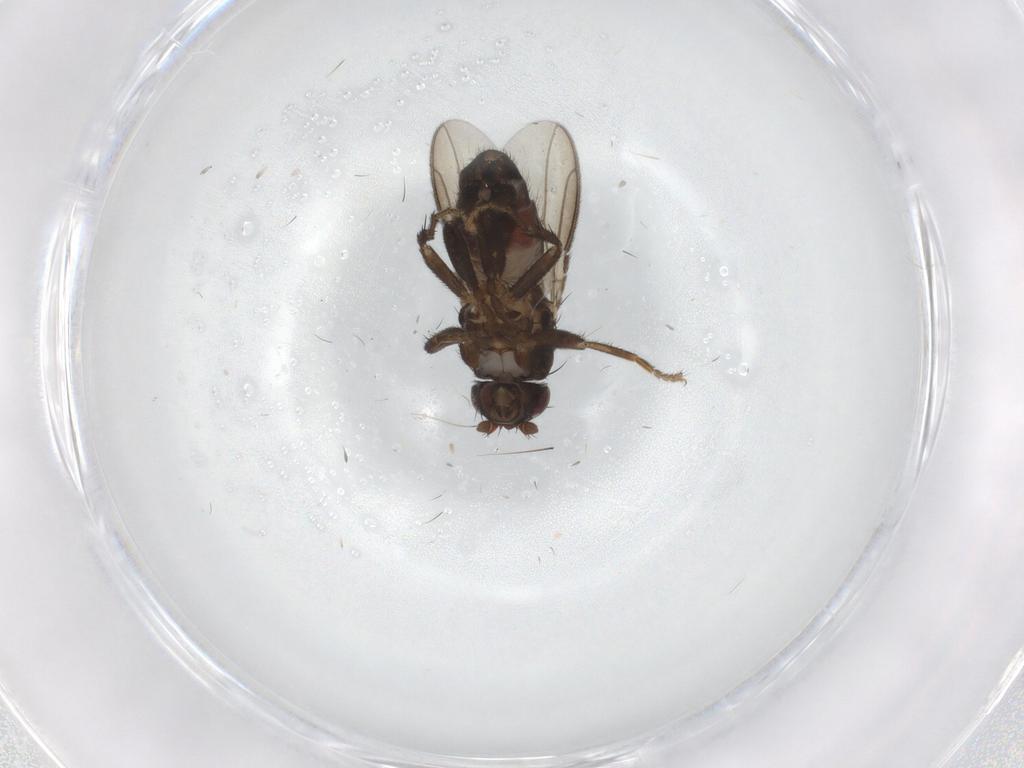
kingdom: Animalia
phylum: Arthropoda
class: Insecta
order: Diptera
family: Sphaeroceridae
